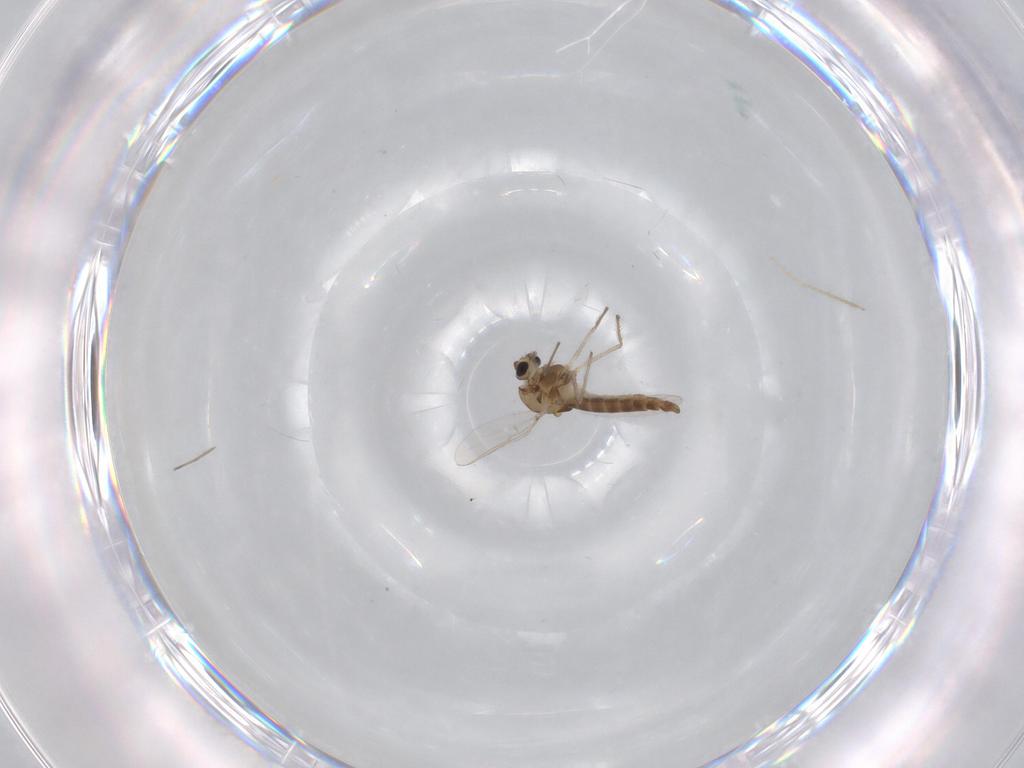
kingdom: Animalia
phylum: Arthropoda
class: Insecta
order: Diptera
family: Chironomidae
